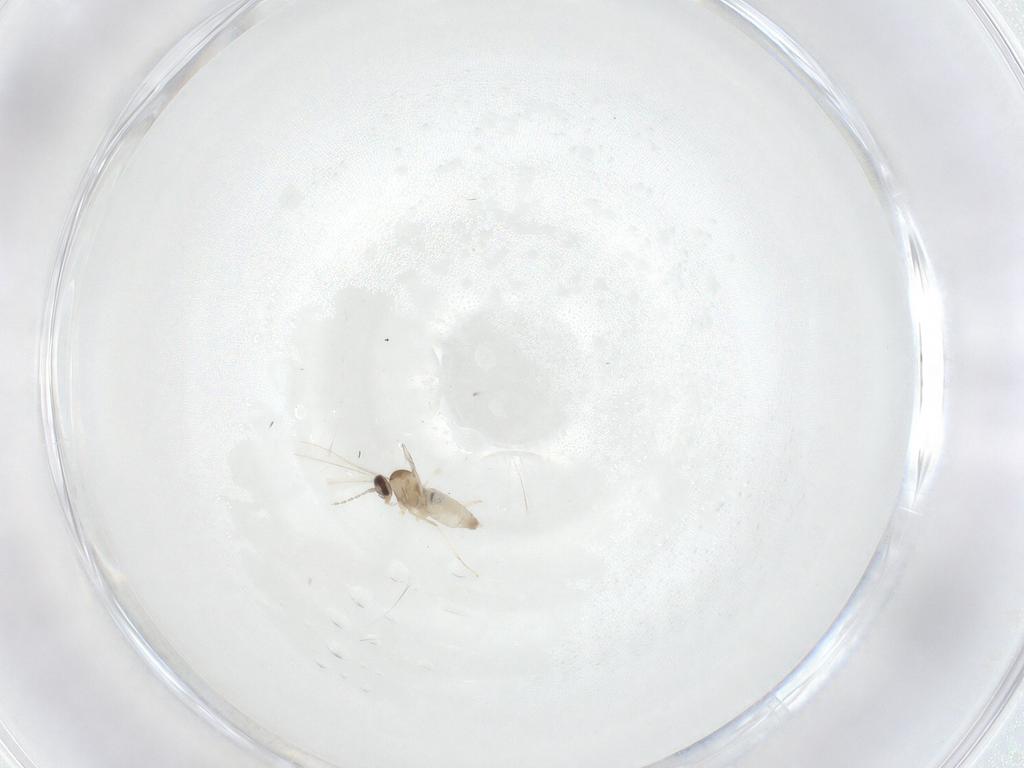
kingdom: Animalia
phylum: Arthropoda
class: Insecta
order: Diptera
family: Cecidomyiidae
